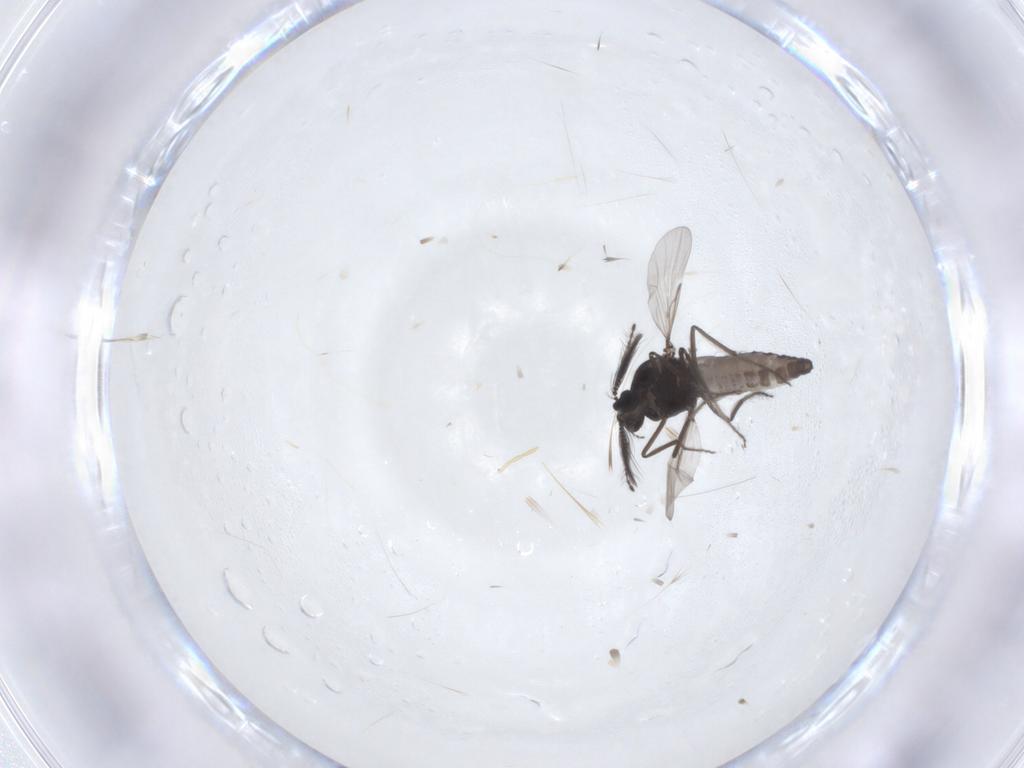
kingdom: Animalia
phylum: Arthropoda
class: Insecta
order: Diptera
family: Ceratopogonidae
